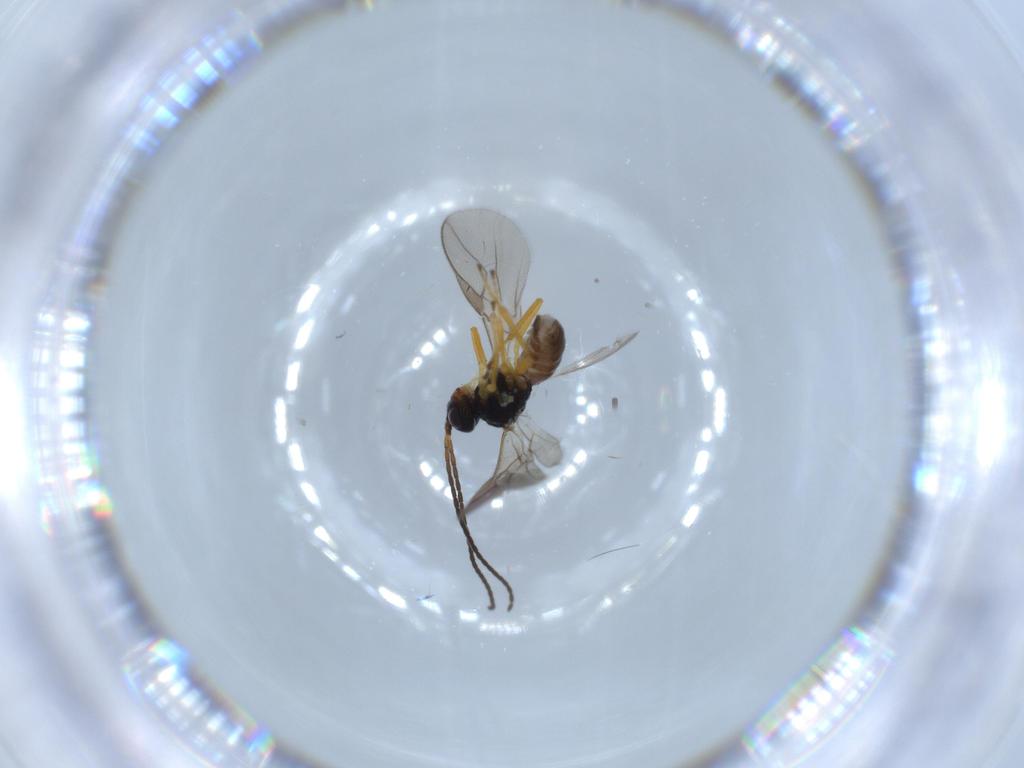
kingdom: Animalia
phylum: Arthropoda
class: Insecta
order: Hymenoptera
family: Braconidae
